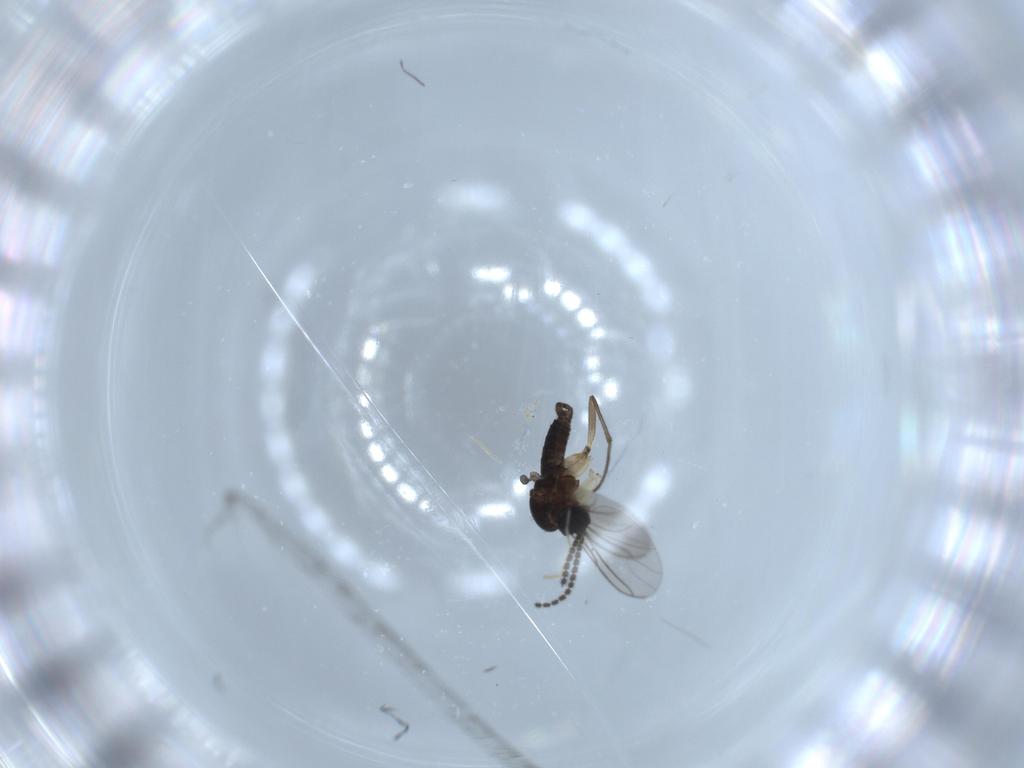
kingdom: Animalia
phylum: Arthropoda
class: Insecta
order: Diptera
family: Sciaridae
